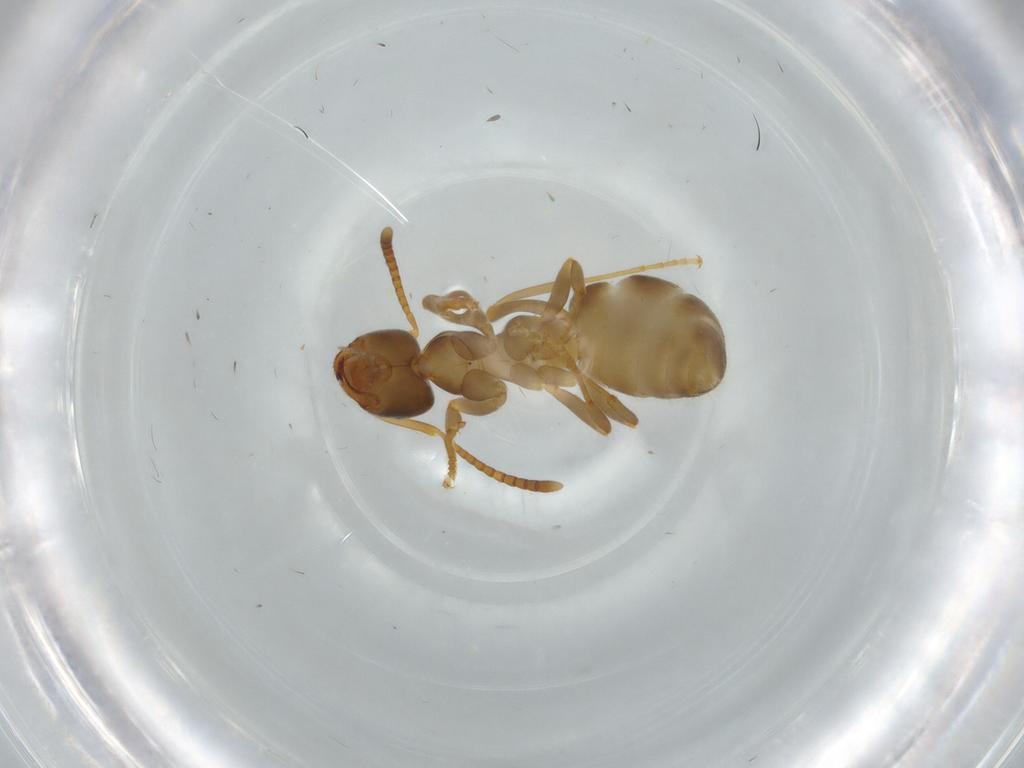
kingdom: Animalia
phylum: Arthropoda
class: Insecta
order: Hymenoptera
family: Formicidae
